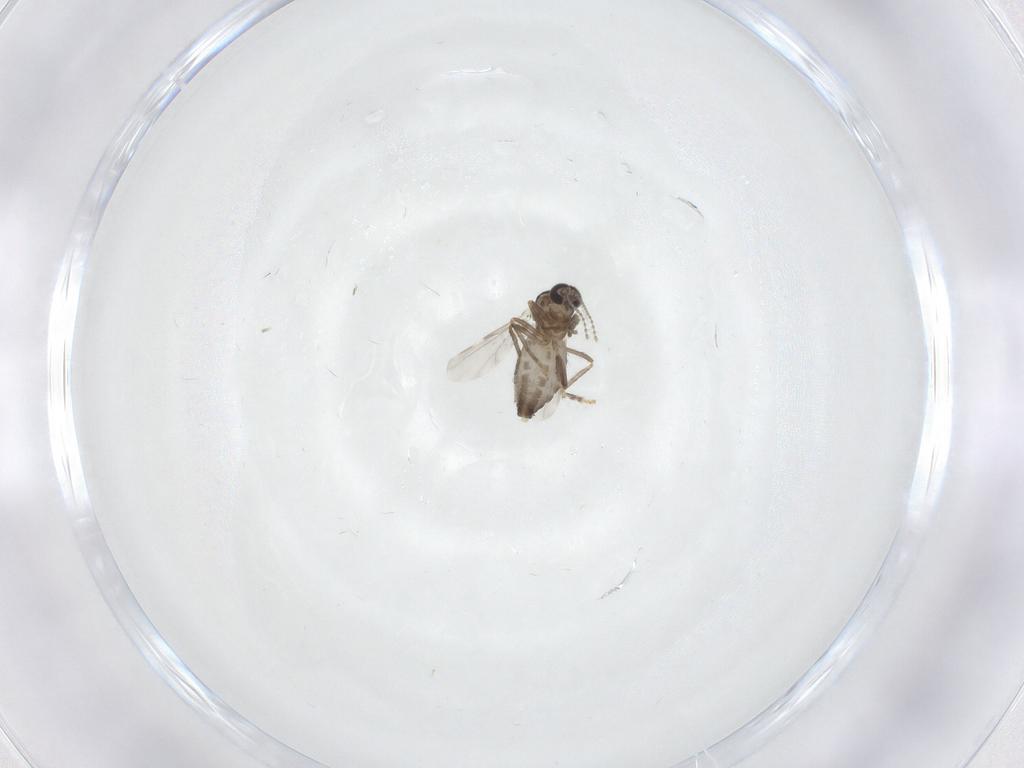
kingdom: Animalia
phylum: Arthropoda
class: Insecta
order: Diptera
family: Ceratopogonidae
